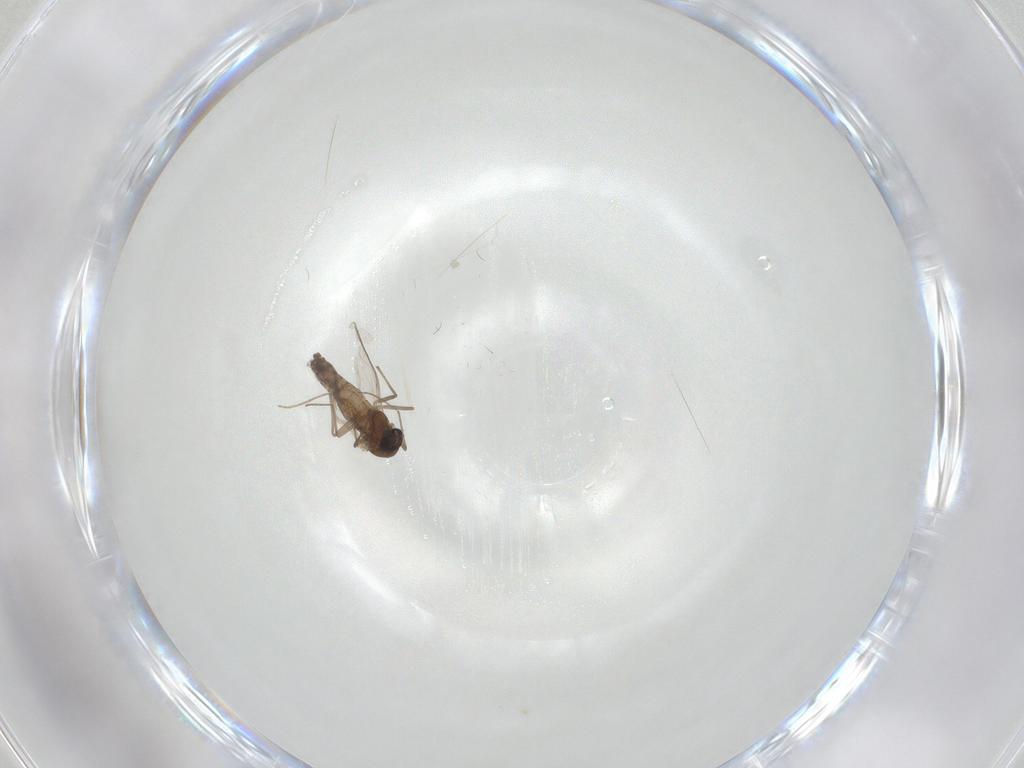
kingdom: Animalia
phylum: Arthropoda
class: Insecta
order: Diptera
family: Chironomidae
